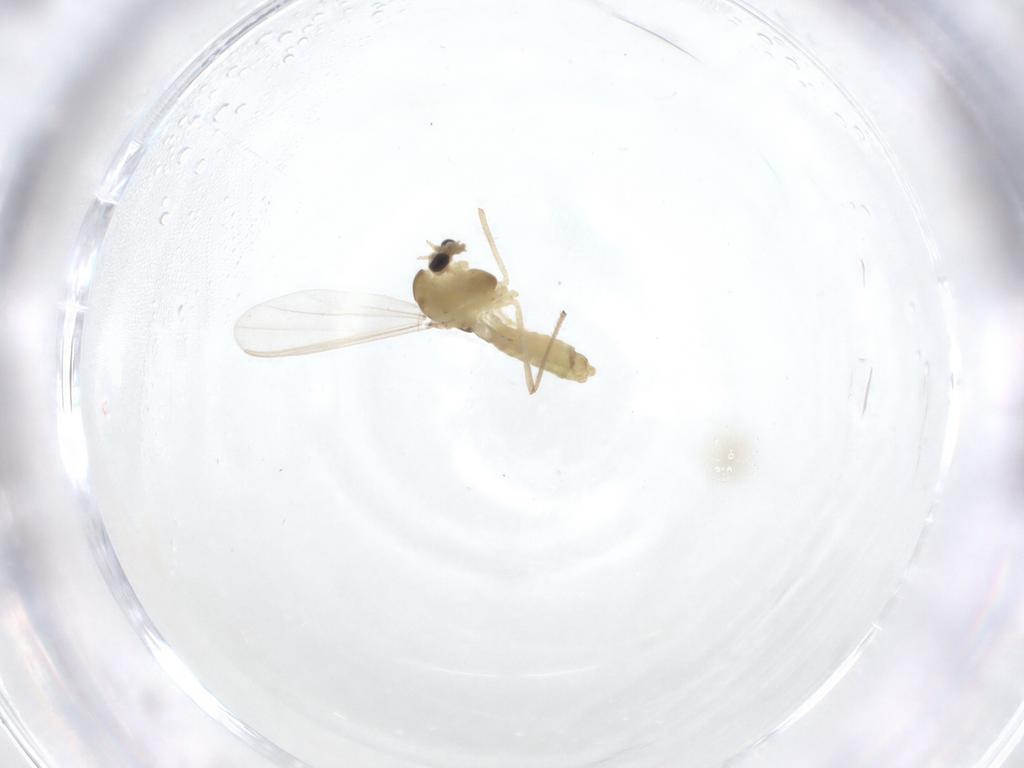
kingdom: Animalia
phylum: Arthropoda
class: Insecta
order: Diptera
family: Chironomidae
